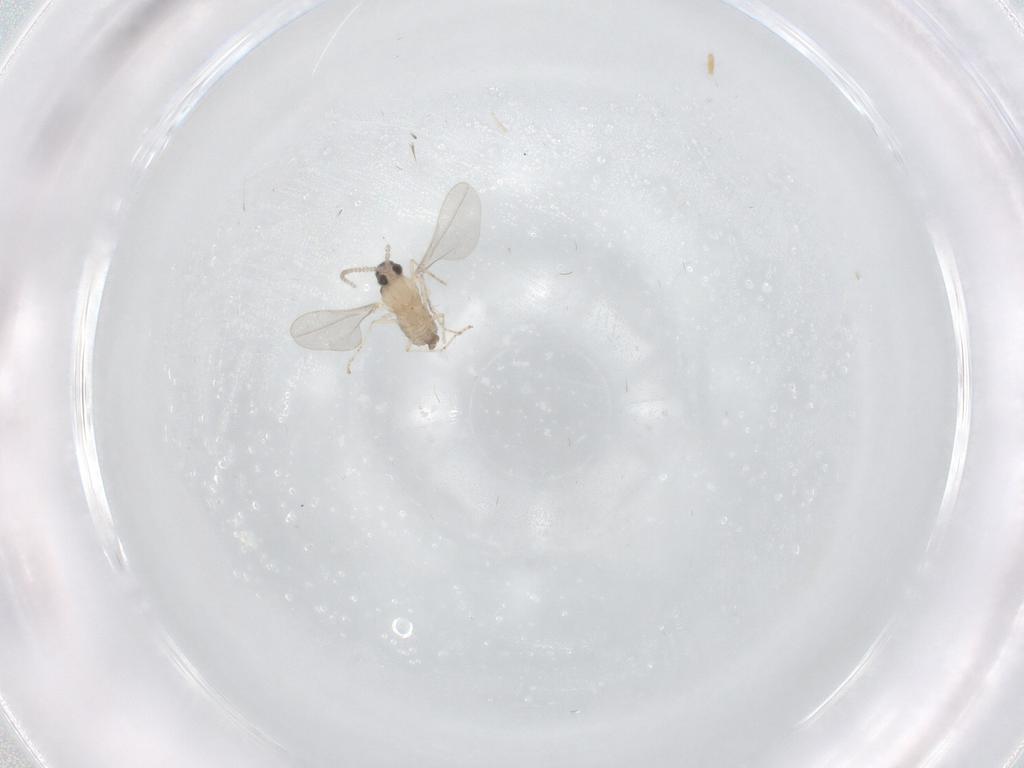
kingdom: Animalia
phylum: Arthropoda
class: Insecta
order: Diptera
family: Cecidomyiidae
